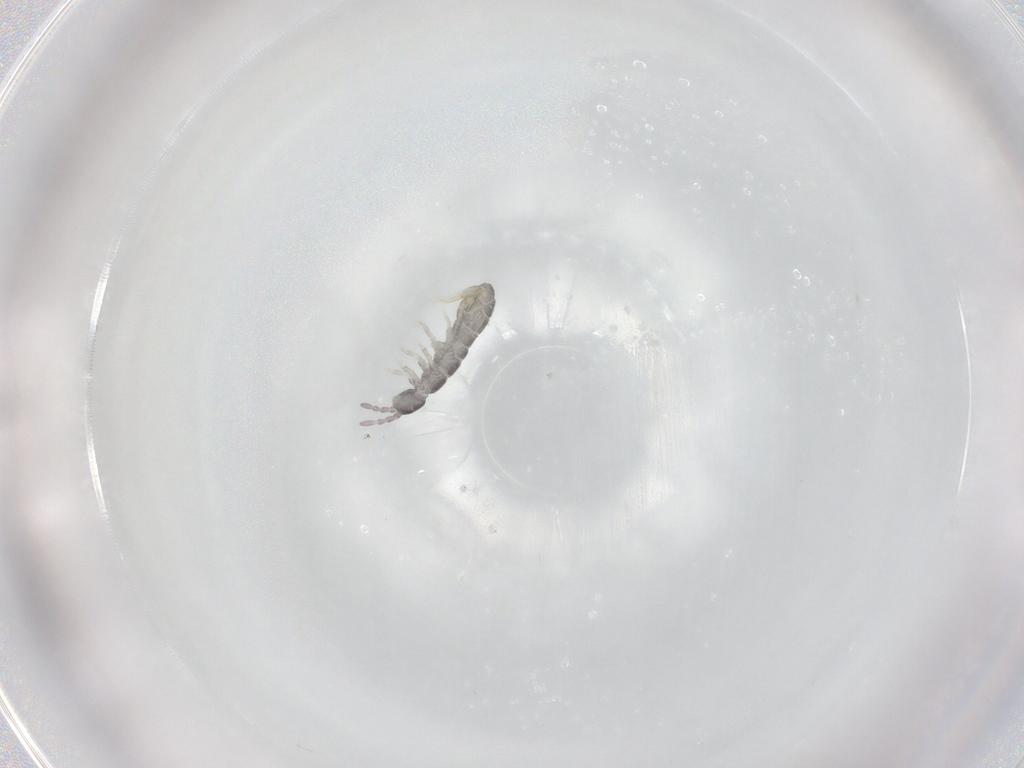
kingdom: Animalia
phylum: Arthropoda
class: Collembola
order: Entomobryomorpha
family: Isotomidae
